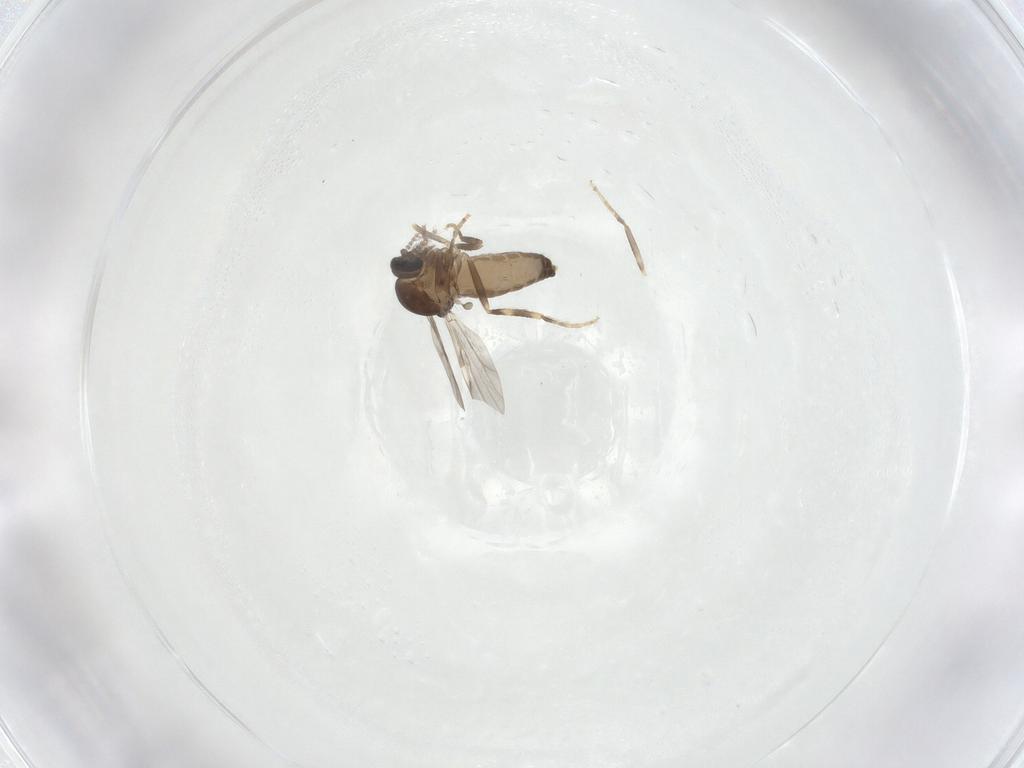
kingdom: Animalia
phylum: Arthropoda
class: Insecta
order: Diptera
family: Ceratopogonidae
